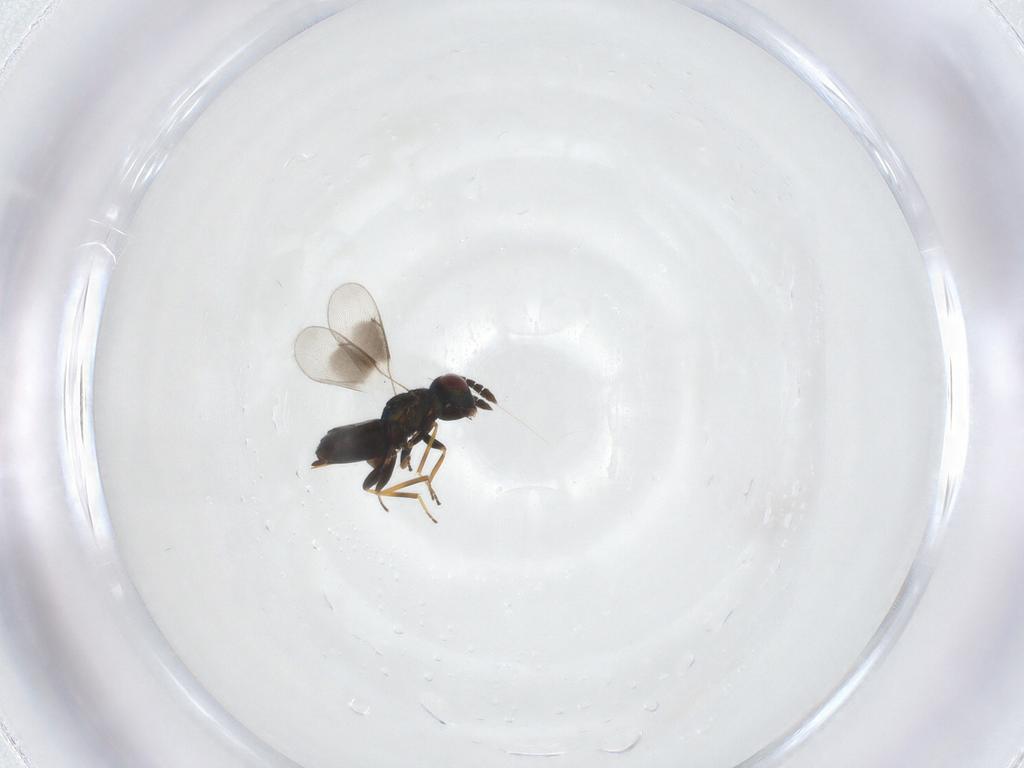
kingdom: Animalia
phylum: Arthropoda
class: Insecta
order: Hymenoptera
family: Eulophidae
